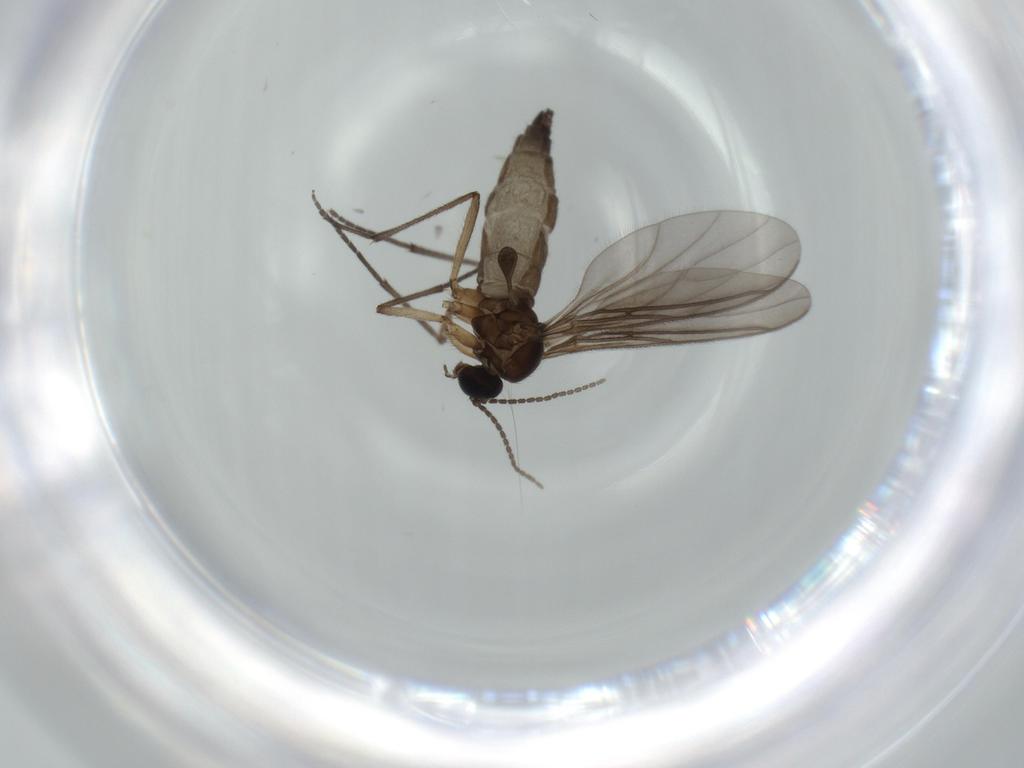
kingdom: Animalia
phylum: Arthropoda
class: Insecta
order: Diptera
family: Sciaridae
